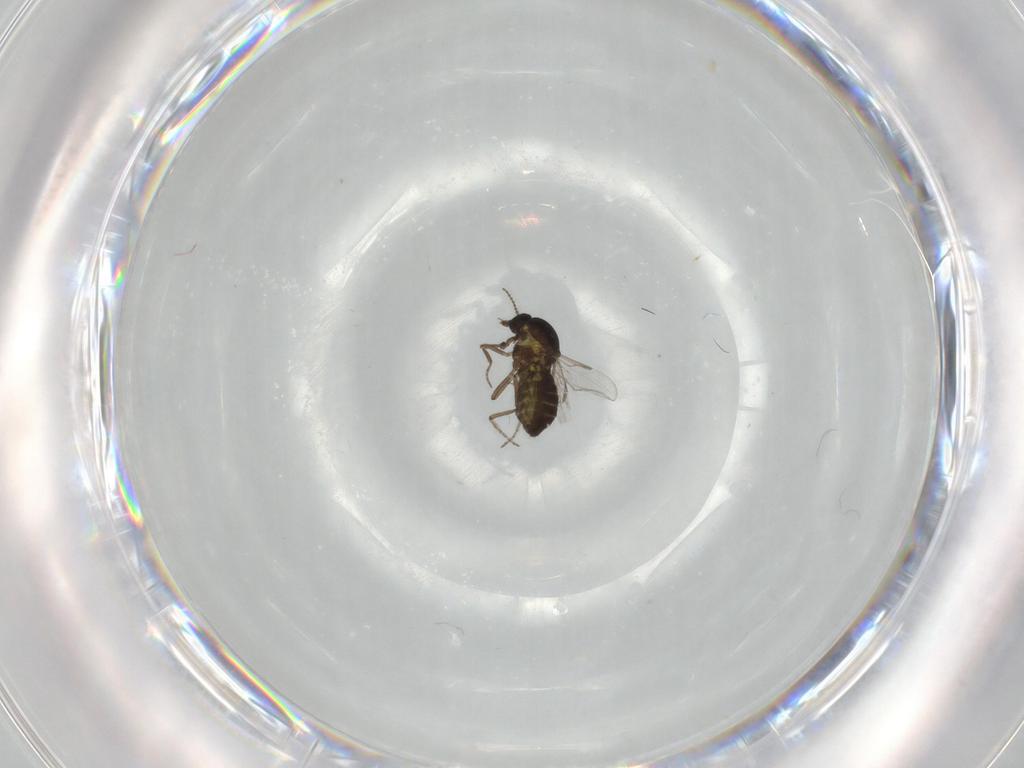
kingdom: Animalia
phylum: Arthropoda
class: Insecta
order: Diptera
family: Ceratopogonidae
